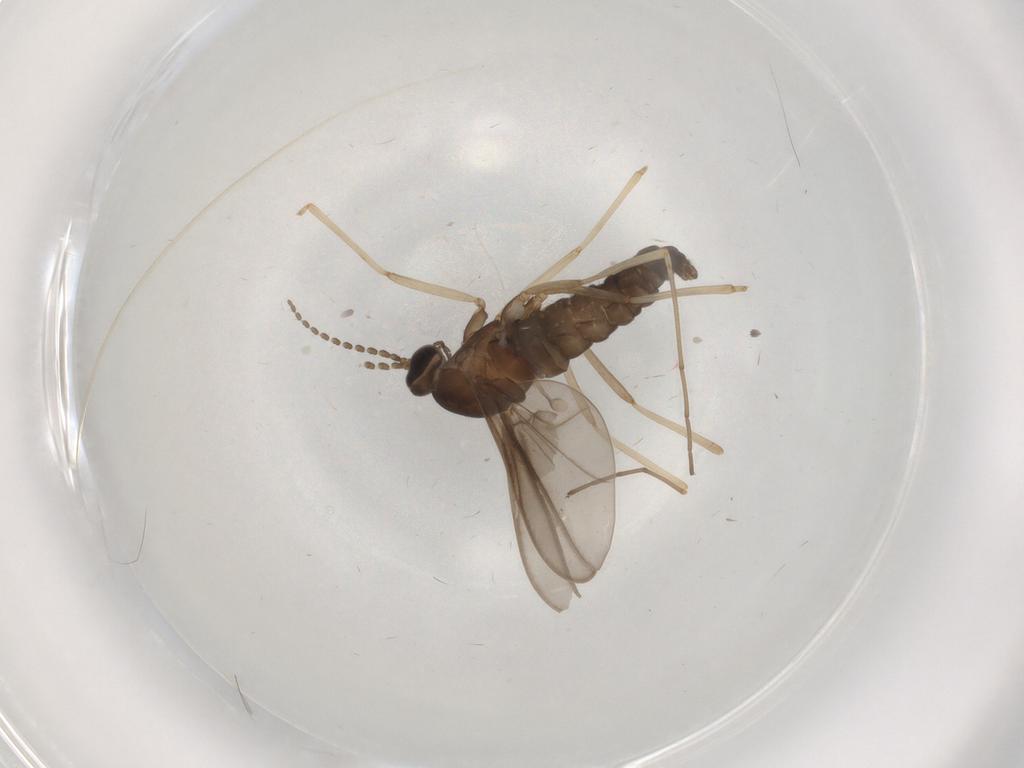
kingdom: Animalia
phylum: Arthropoda
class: Insecta
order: Diptera
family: Cecidomyiidae
